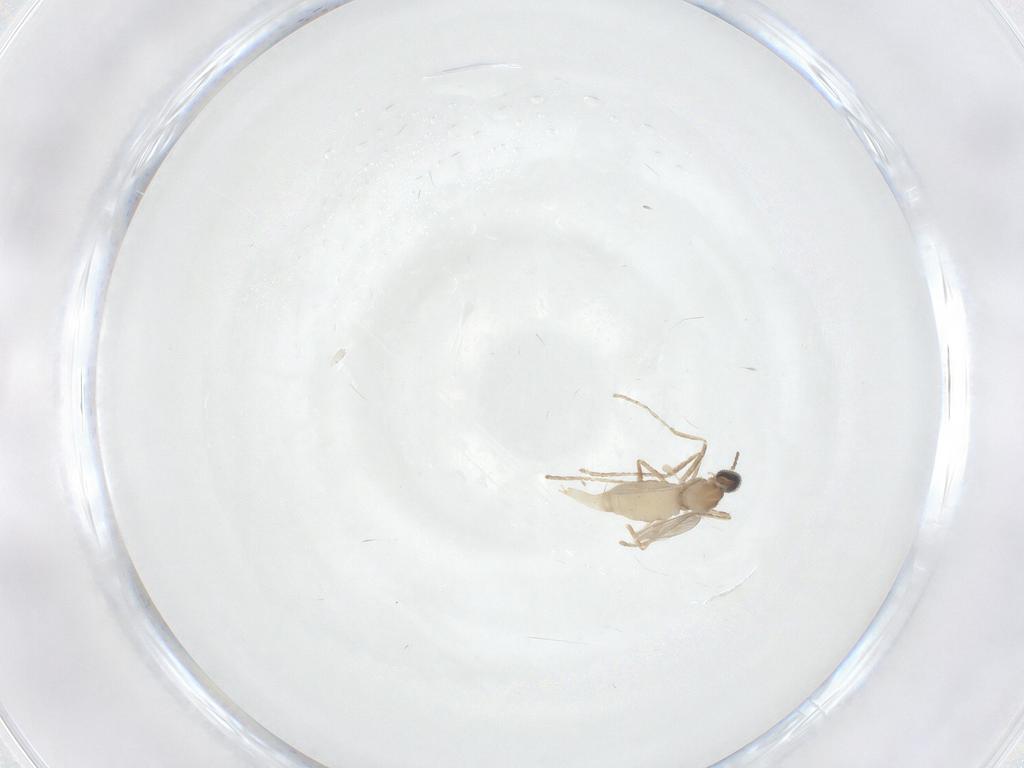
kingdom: Animalia
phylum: Arthropoda
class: Insecta
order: Diptera
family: Cecidomyiidae
